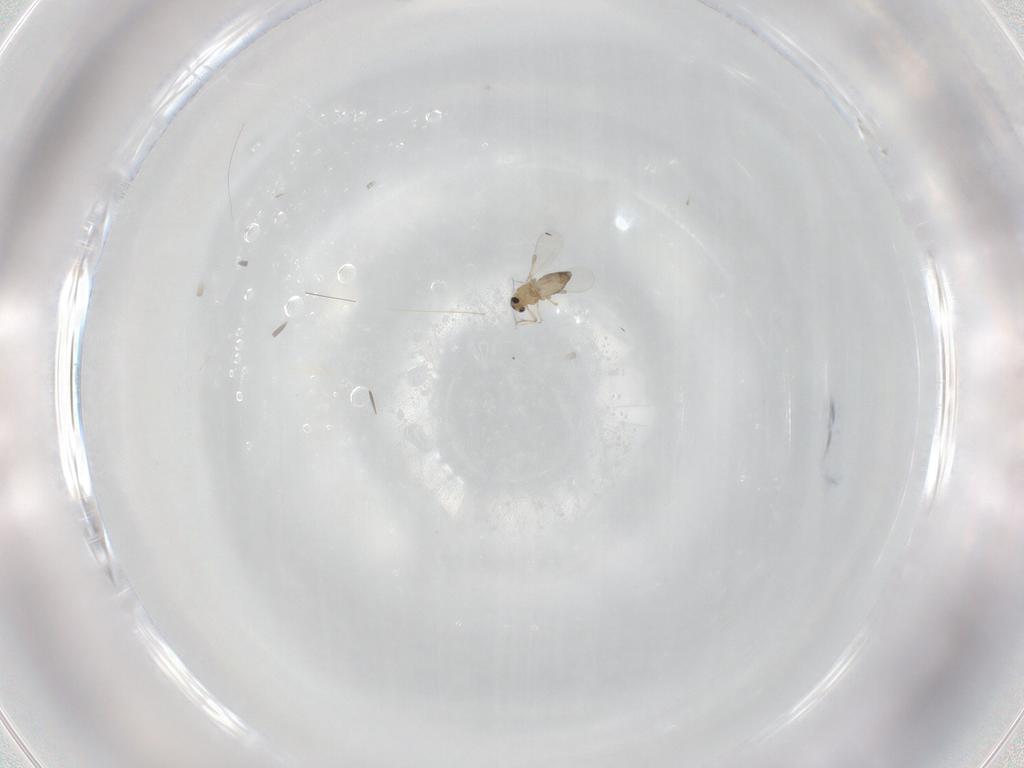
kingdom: Animalia
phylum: Arthropoda
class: Insecta
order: Diptera
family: Chironomidae
